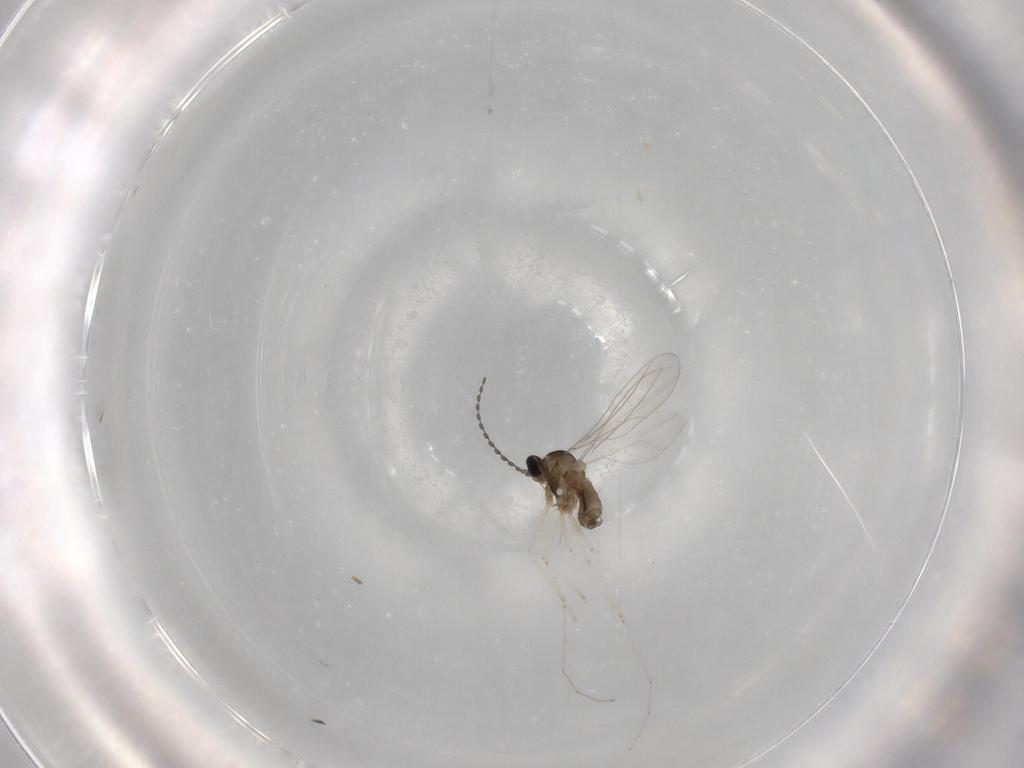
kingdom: Animalia
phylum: Arthropoda
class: Insecta
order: Diptera
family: Cecidomyiidae
